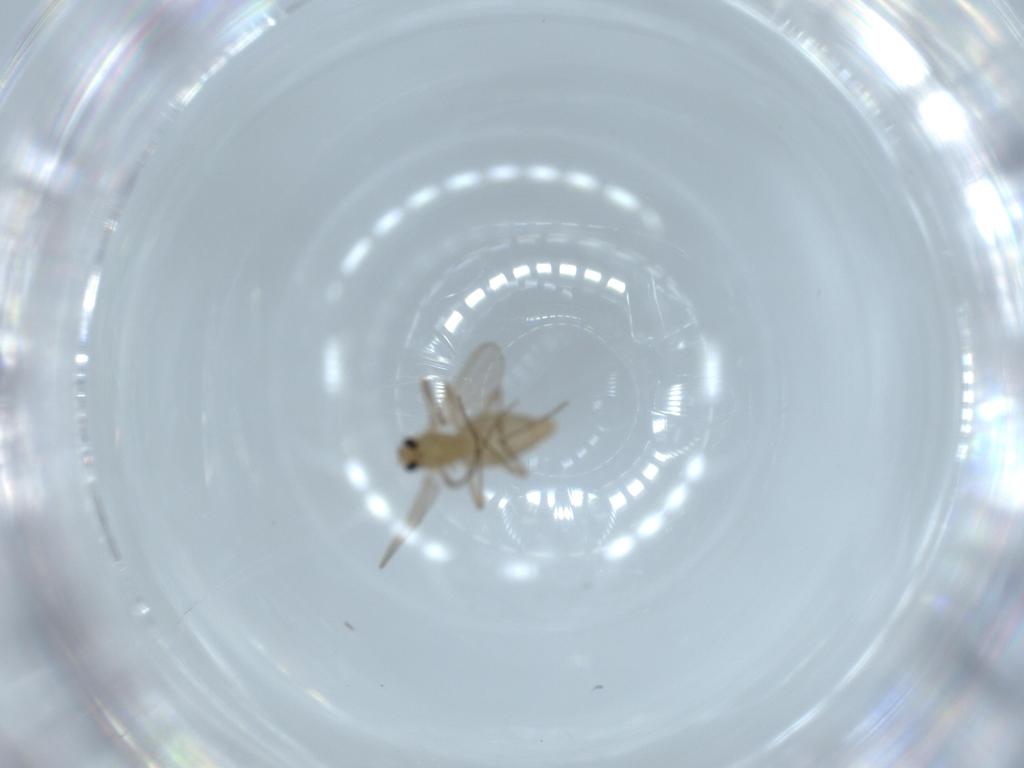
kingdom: Animalia
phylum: Arthropoda
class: Insecta
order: Diptera
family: Chironomidae
